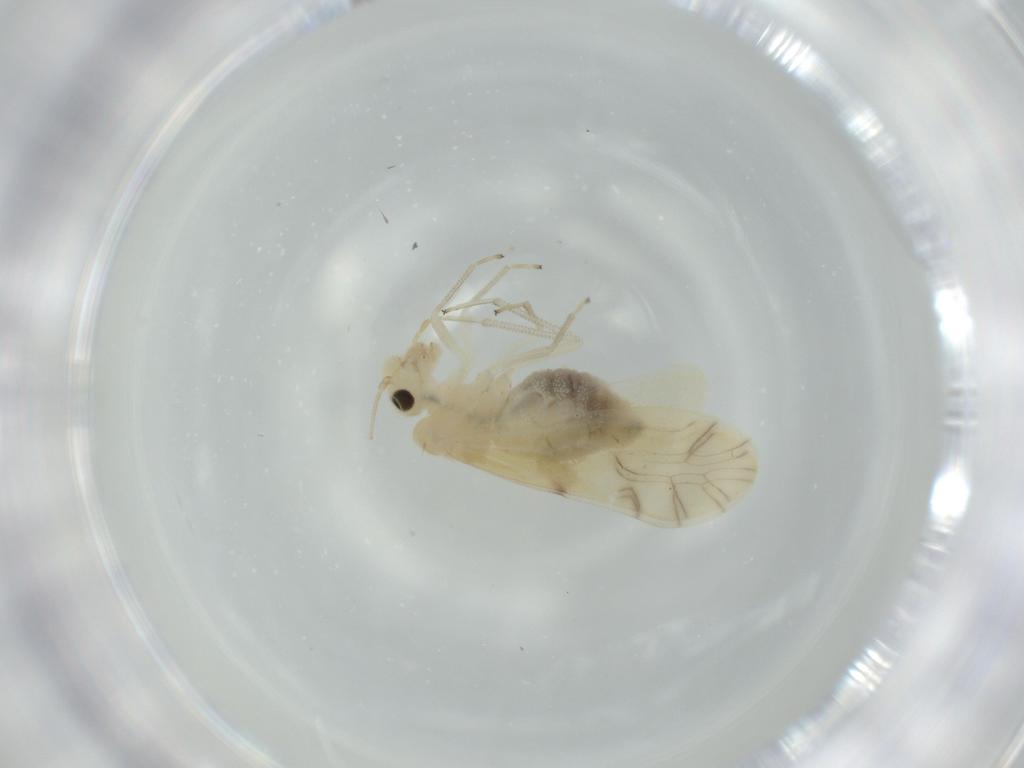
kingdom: Animalia
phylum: Arthropoda
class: Insecta
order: Psocodea
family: Caeciliusidae
